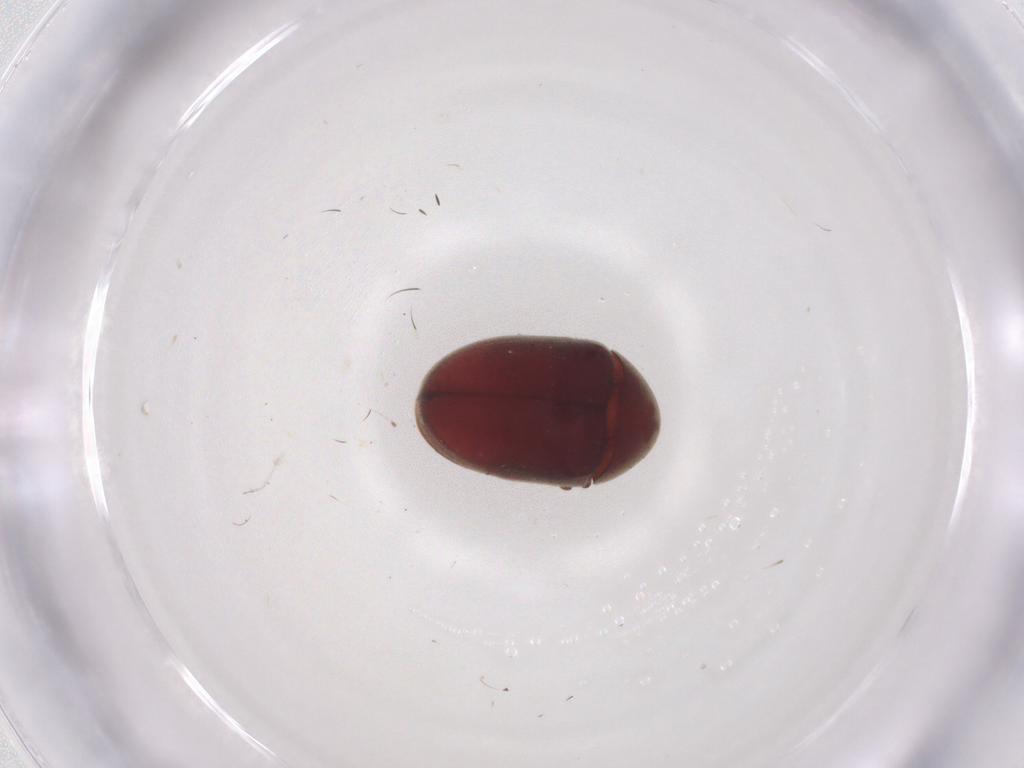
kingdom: Animalia
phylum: Arthropoda
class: Insecta
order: Coleoptera
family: Ptinidae
